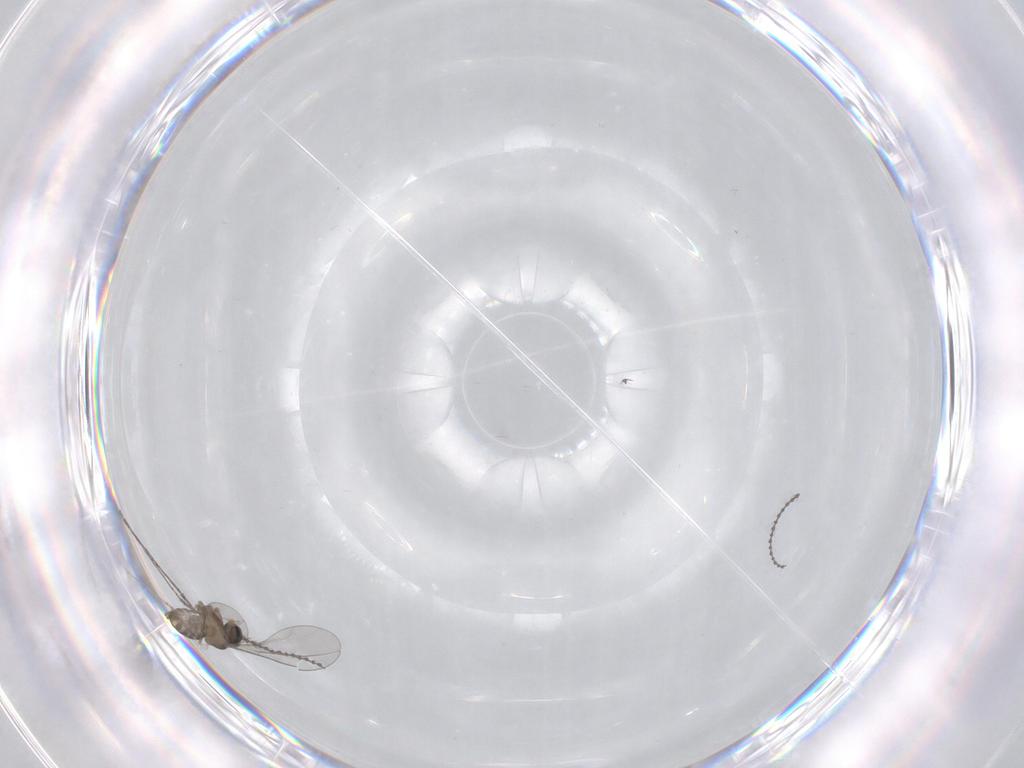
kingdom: Animalia
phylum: Arthropoda
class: Insecta
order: Diptera
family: Cecidomyiidae
